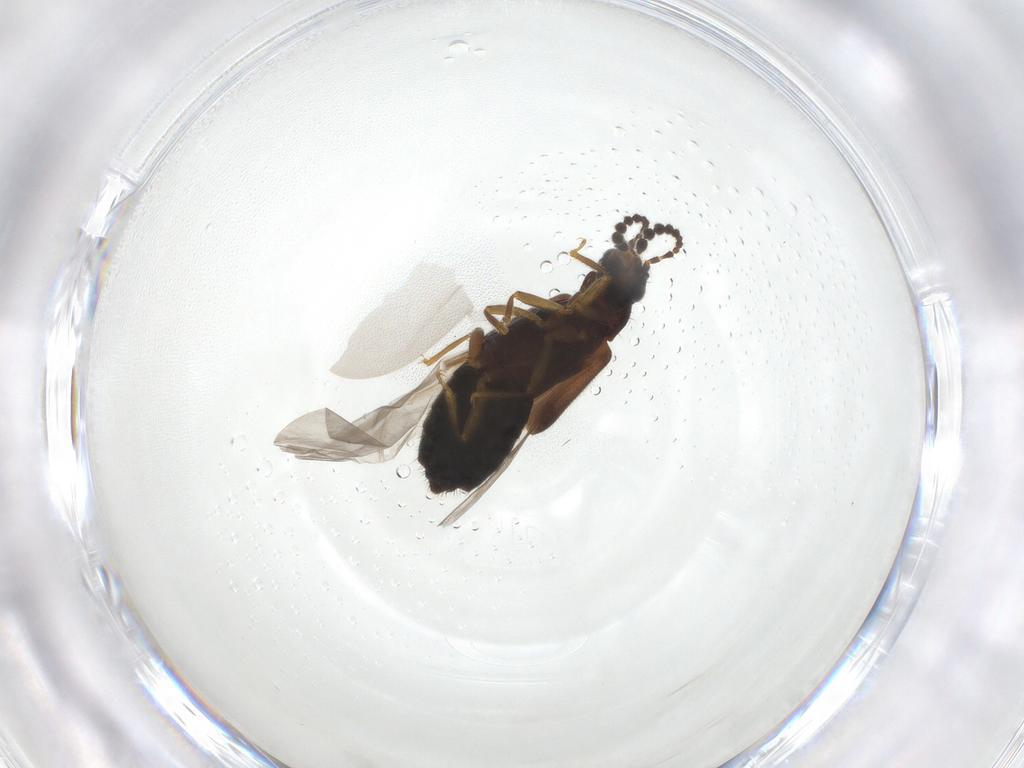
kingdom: Animalia
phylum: Arthropoda
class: Insecta
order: Coleoptera
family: Staphylinidae
